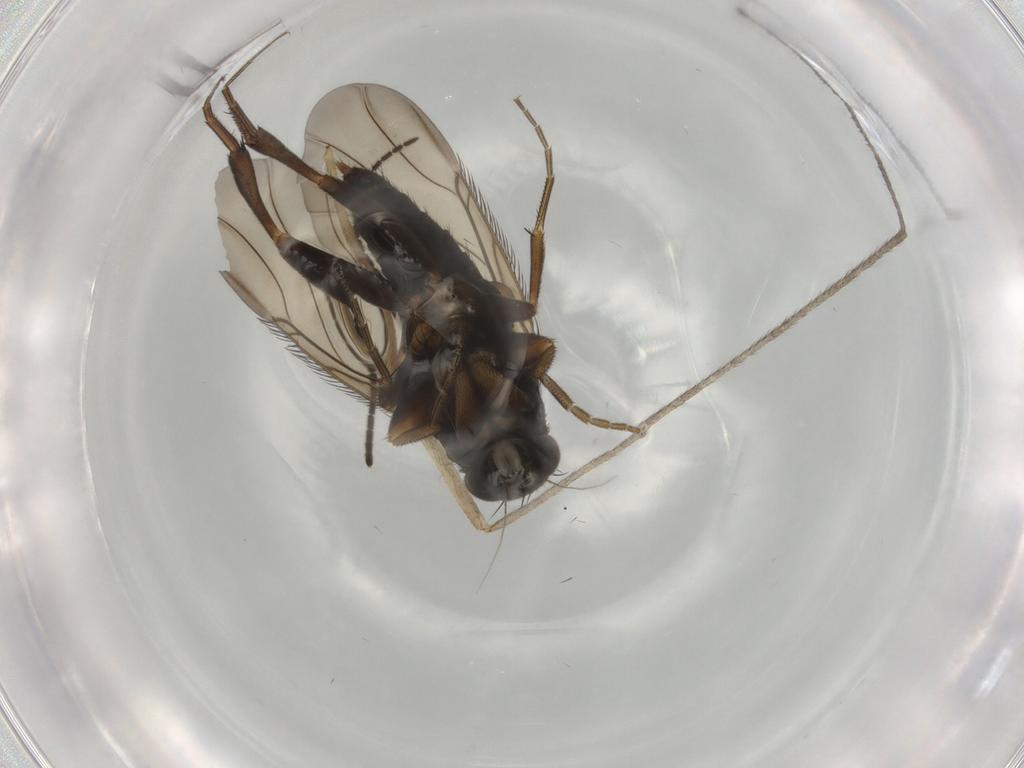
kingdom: Animalia
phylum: Arthropoda
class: Insecta
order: Diptera
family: Phoridae
